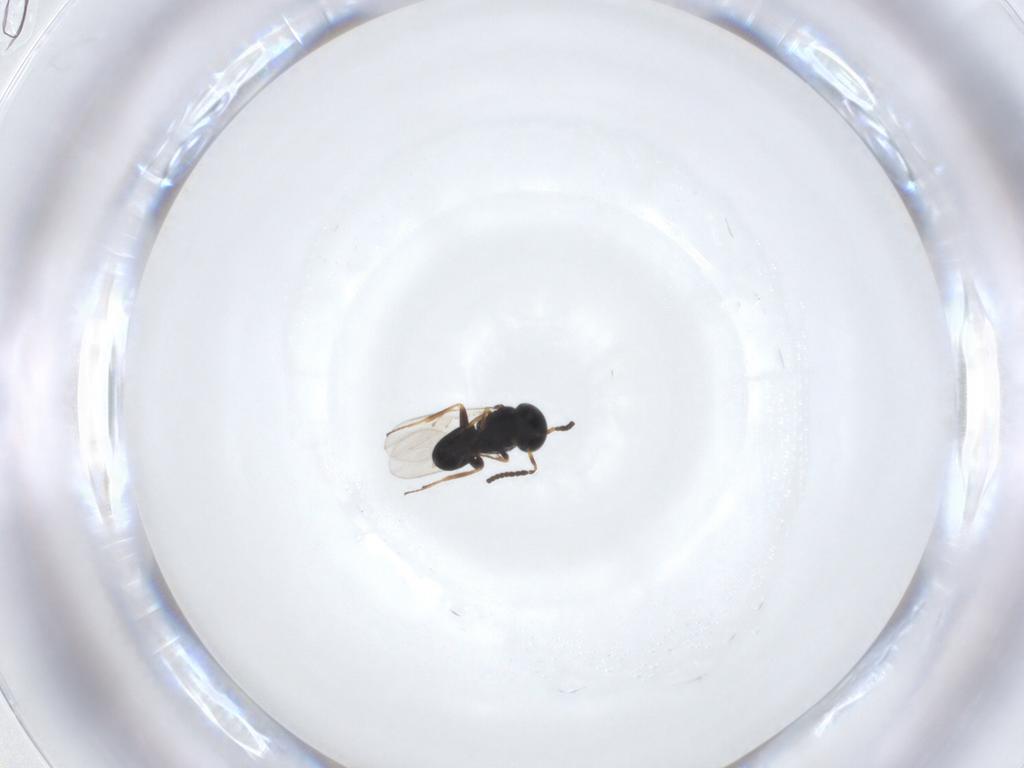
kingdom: Animalia
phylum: Arthropoda
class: Insecta
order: Hymenoptera
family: Scelionidae
